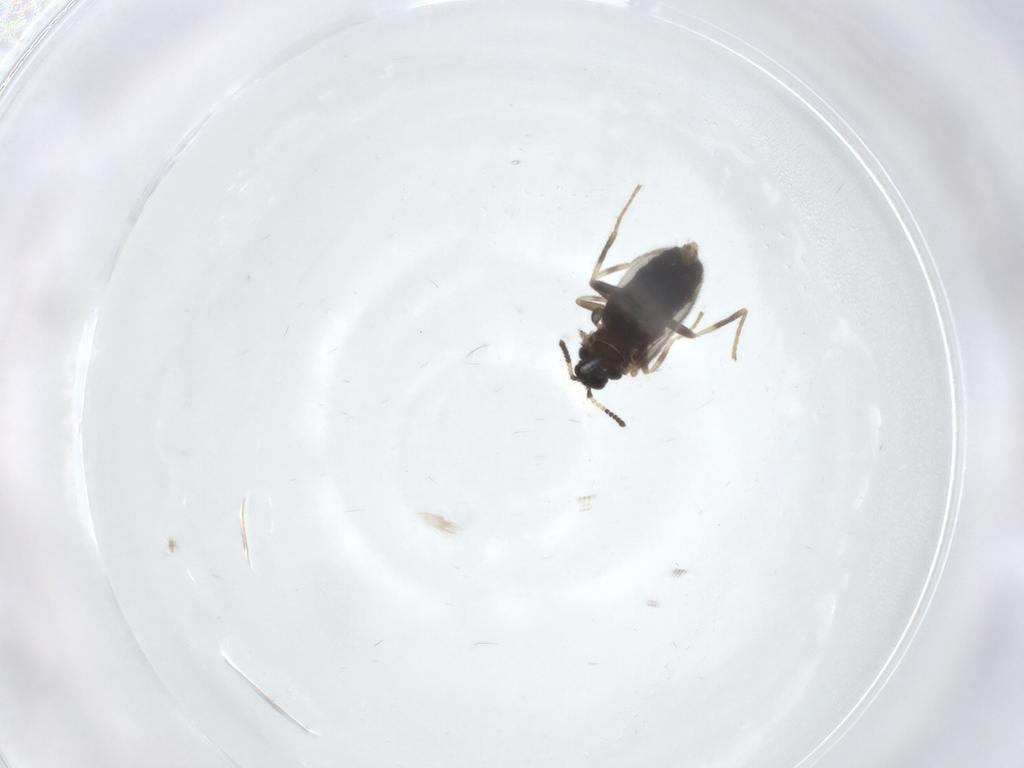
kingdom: Animalia
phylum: Arthropoda
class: Insecta
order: Diptera
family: Scatopsidae
